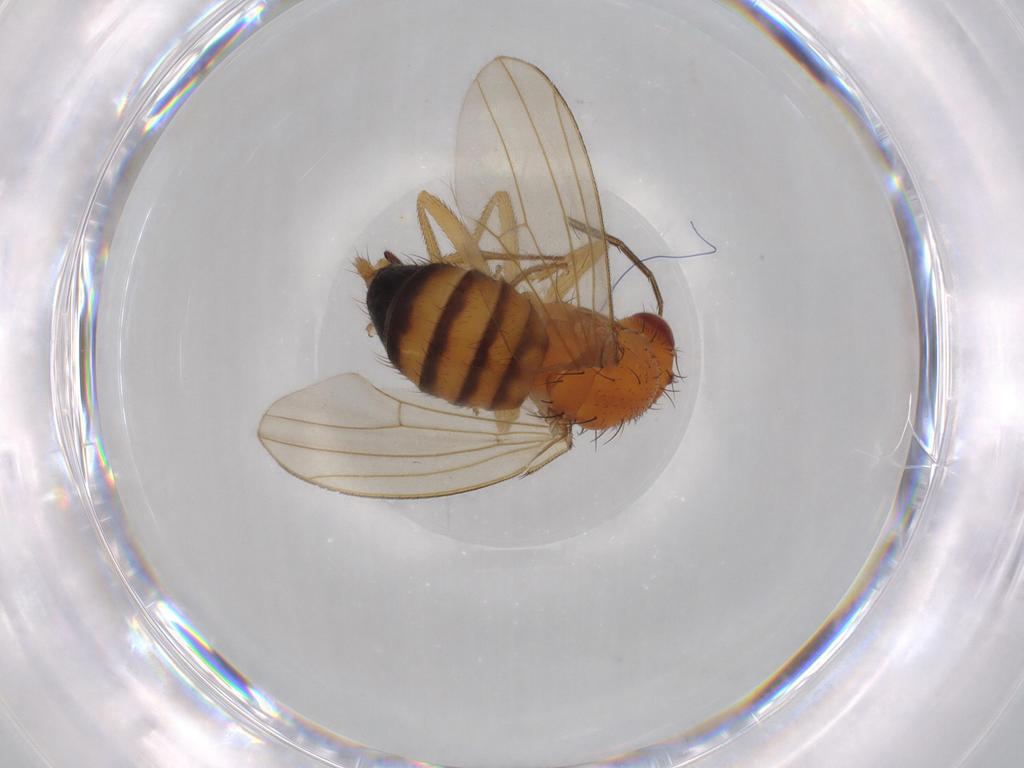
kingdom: Animalia
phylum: Arthropoda
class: Insecta
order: Diptera
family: Drosophilidae
